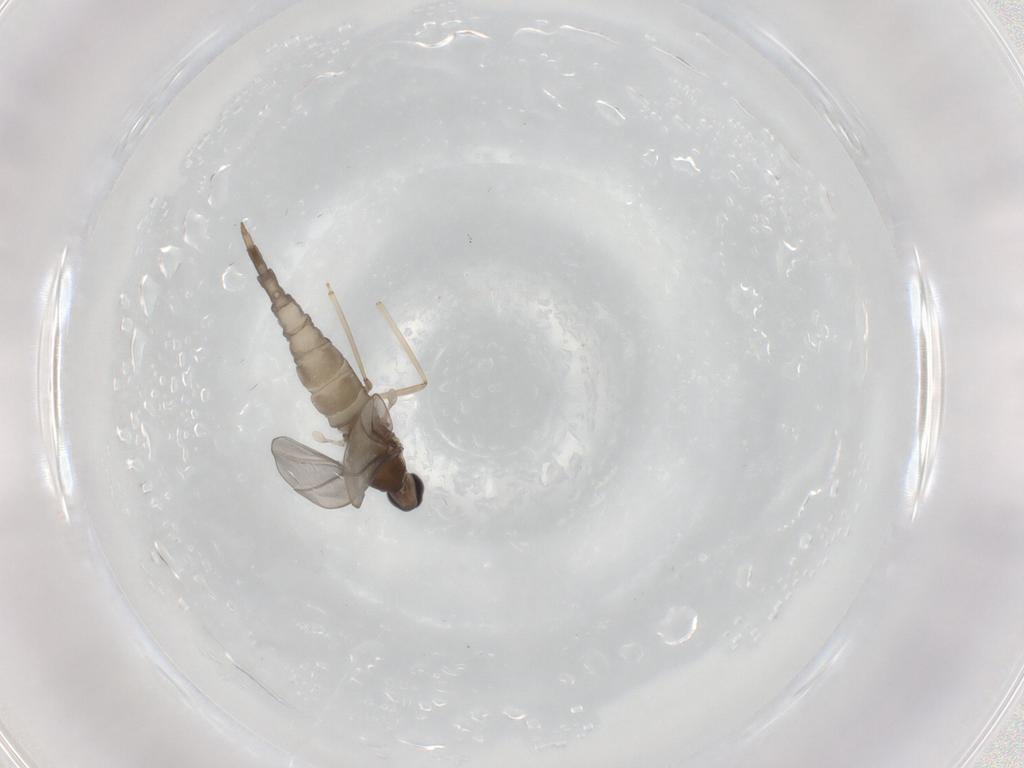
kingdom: Animalia
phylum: Arthropoda
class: Insecta
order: Diptera
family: Cecidomyiidae
